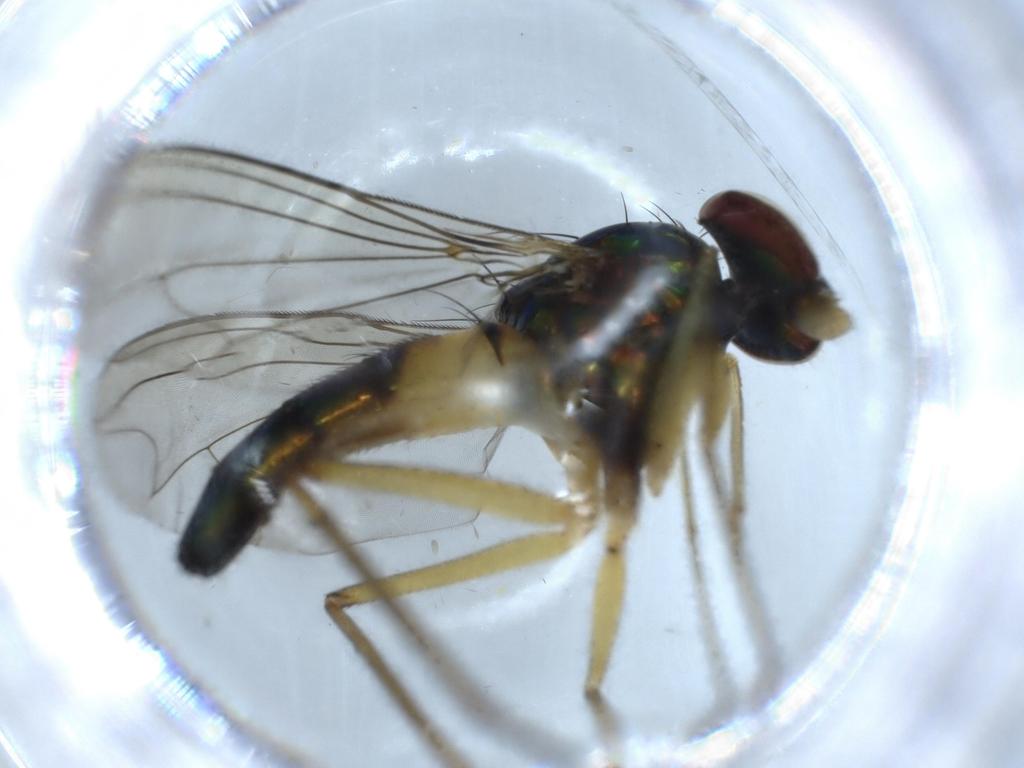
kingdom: Animalia
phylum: Arthropoda
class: Insecta
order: Diptera
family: Dolichopodidae
